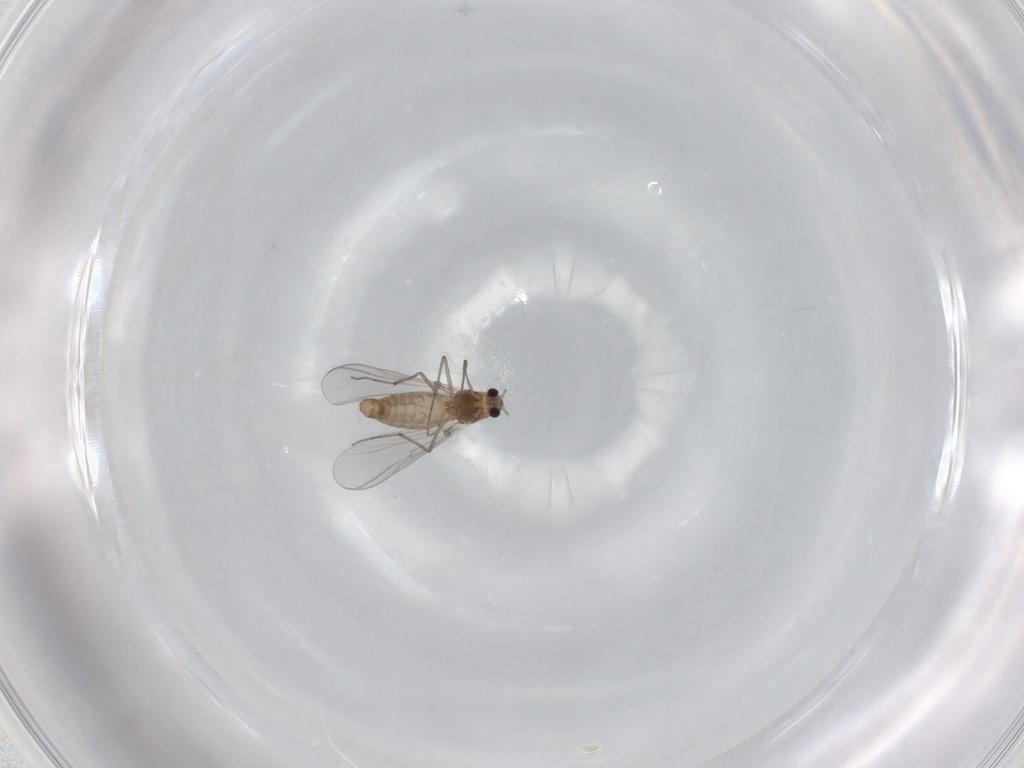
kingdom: Animalia
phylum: Arthropoda
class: Insecta
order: Diptera
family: Chironomidae
